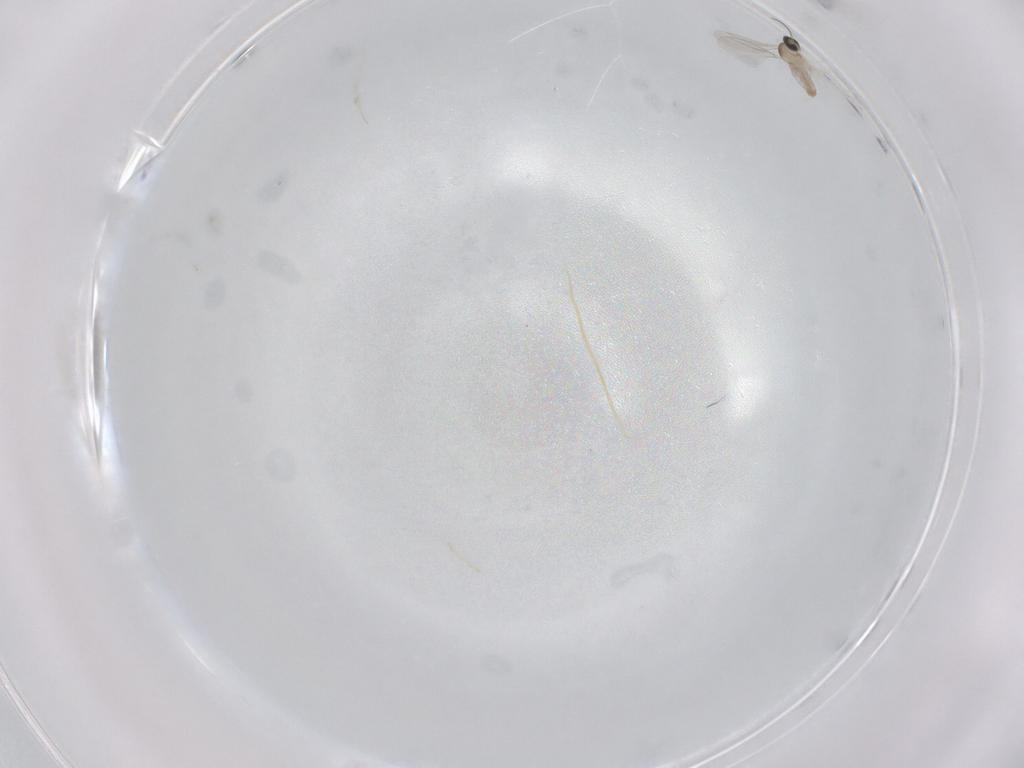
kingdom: Animalia
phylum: Arthropoda
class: Insecta
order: Diptera
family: Cecidomyiidae
